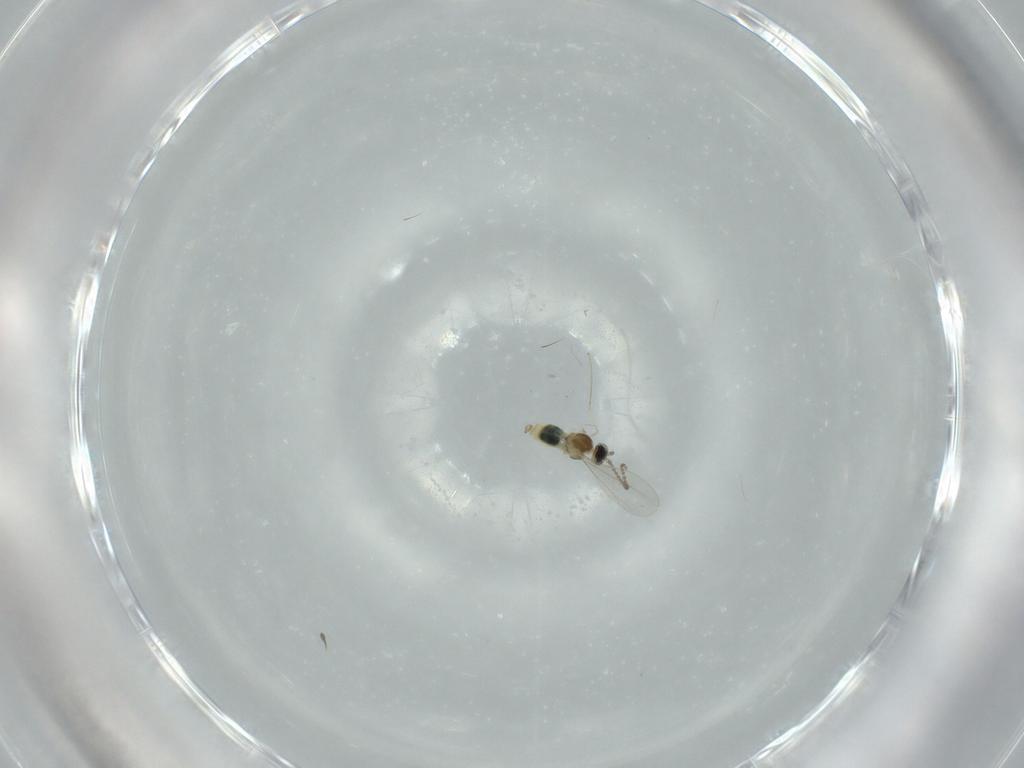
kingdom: Animalia
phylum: Arthropoda
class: Insecta
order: Diptera
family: Cecidomyiidae
